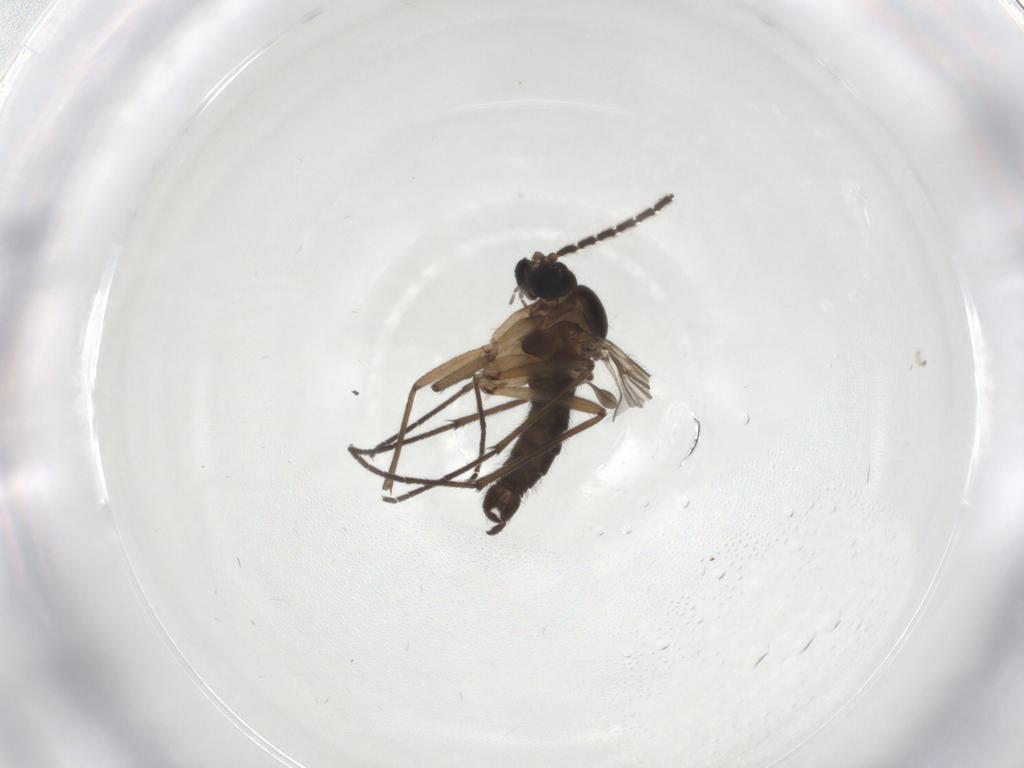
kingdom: Animalia
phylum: Arthropoda
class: Insecta
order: Diptera
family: Sciaridae
